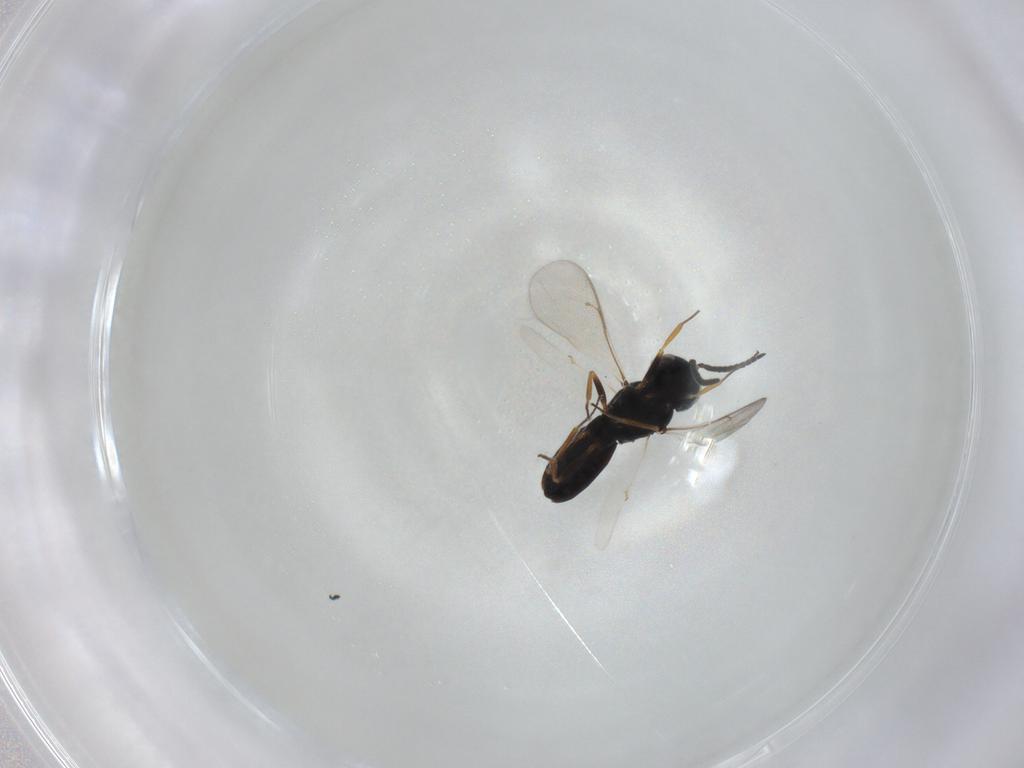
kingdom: Animalia
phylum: Arthropoda
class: Insecta
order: Hymenoptera
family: Scelionidae
